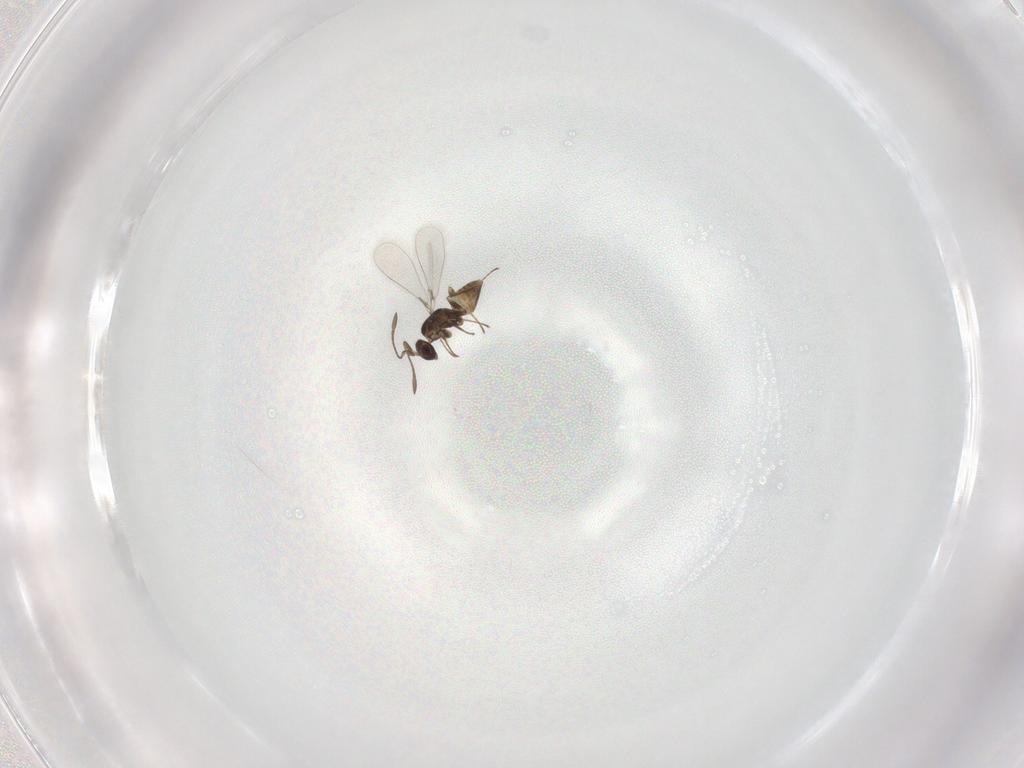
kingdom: Animalia
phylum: Arthropoda
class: Insecta
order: Hymenoptera
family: Mymaridae
